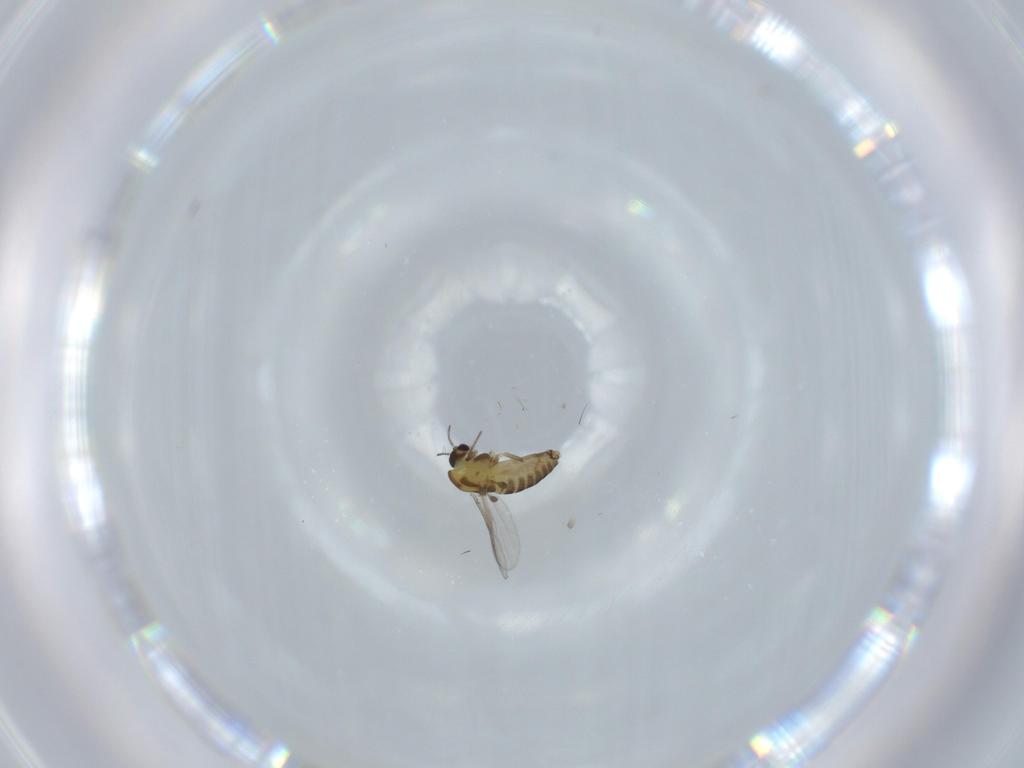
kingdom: Animalia
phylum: Arthropoda
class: Insecta
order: Diptera
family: Chironomidae
